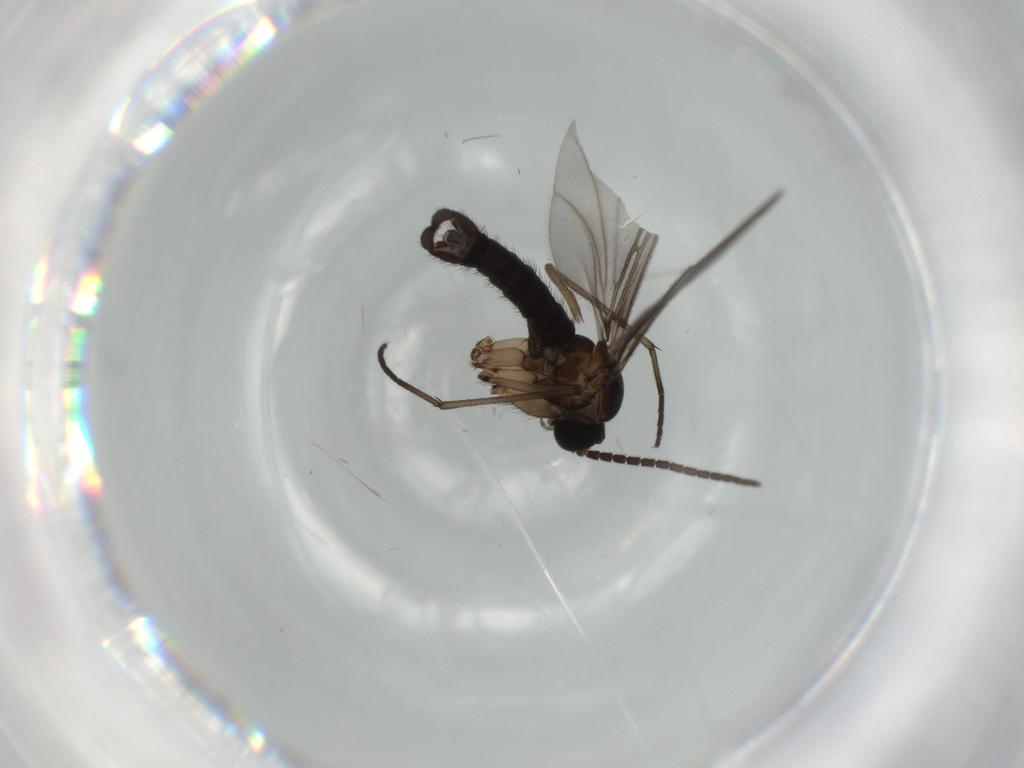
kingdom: Animalia
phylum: Arthropoda
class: Insecta
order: Diptera
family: Sciaridae
